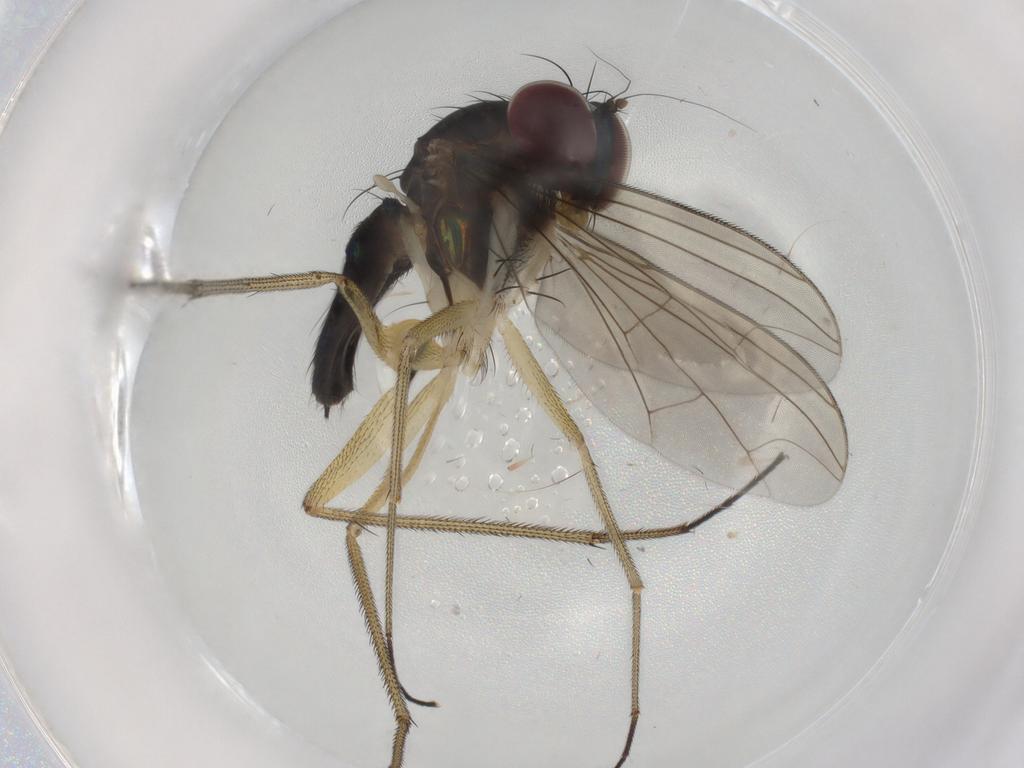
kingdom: Animalia
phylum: Arthropoda
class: Insecta
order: Diptera
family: Dolichopodidae
